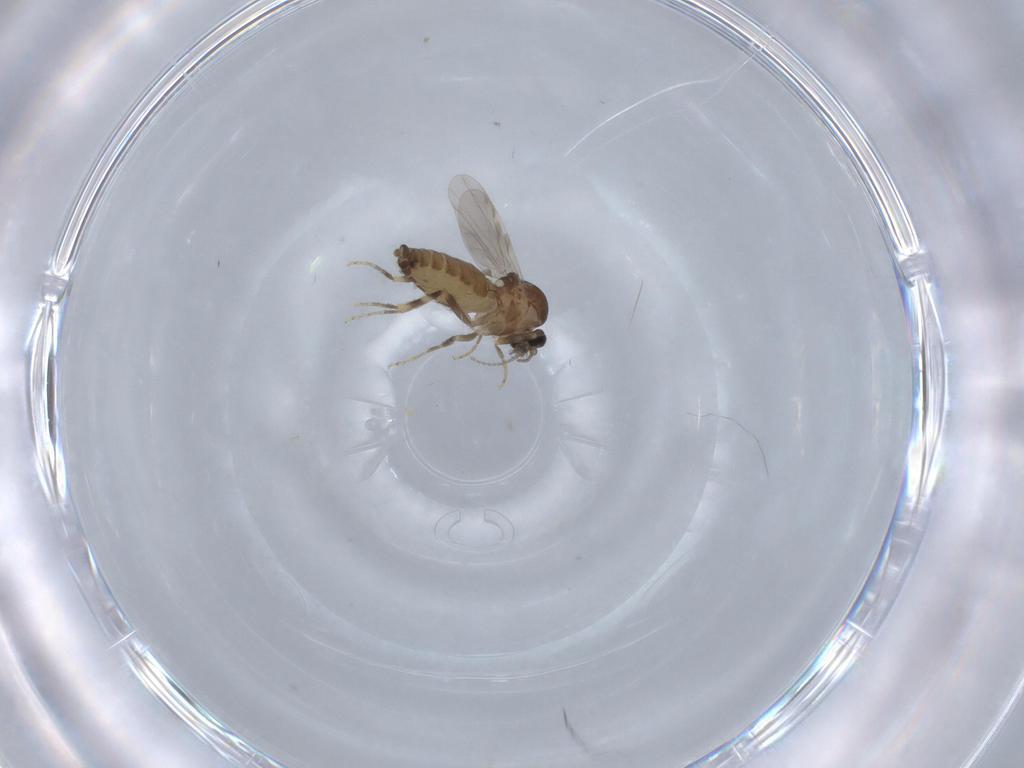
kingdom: Animalia
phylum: Arthropoda
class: Insecta
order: Diptera
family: Ceratopogonidae
